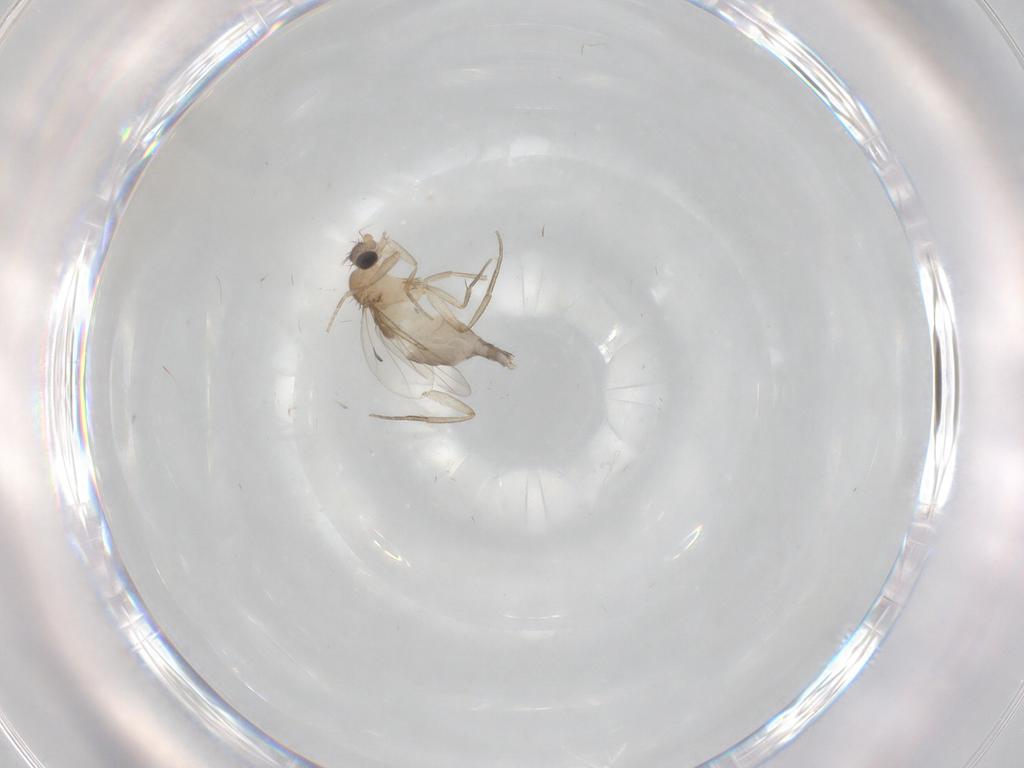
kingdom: Animalia
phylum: Arthropoda
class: Insecta
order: Diptera
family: Phoridae
